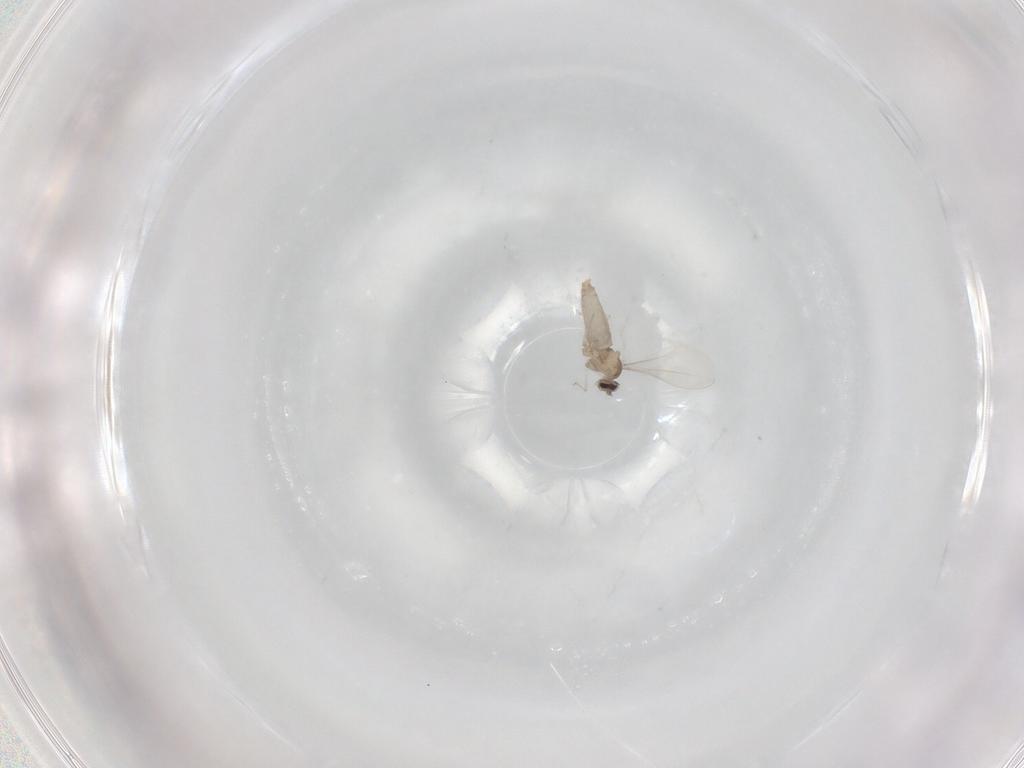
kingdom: Animalia
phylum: Arthropoda
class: Insecta
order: Diptera
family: Cecidomyiidae
